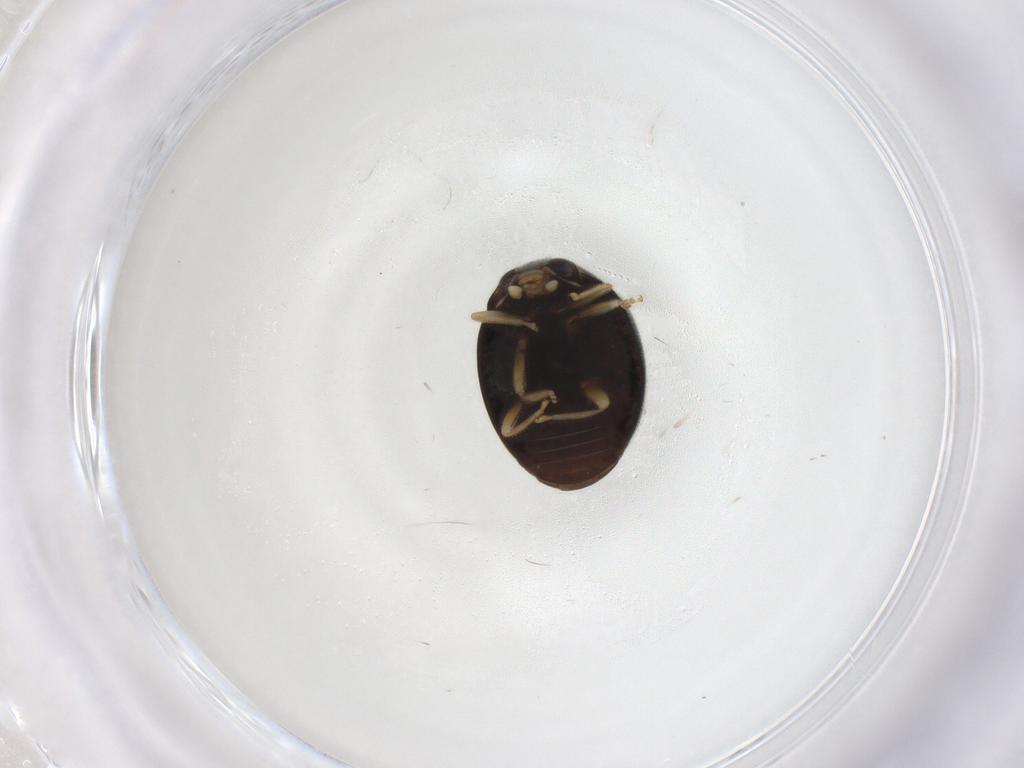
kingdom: Animalia
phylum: Arthropoda
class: Insecta
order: Coleoptera
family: Coccinellidae
